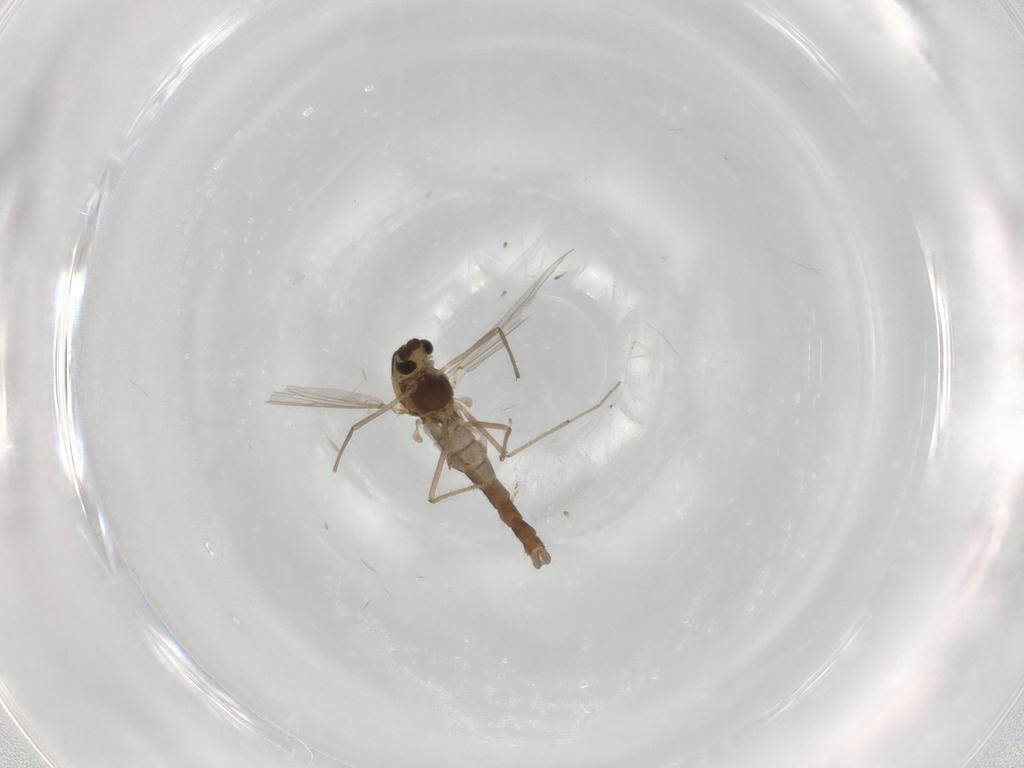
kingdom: Animalia
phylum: Arthropoda
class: Insecta
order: Diptera
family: Chironomidae
